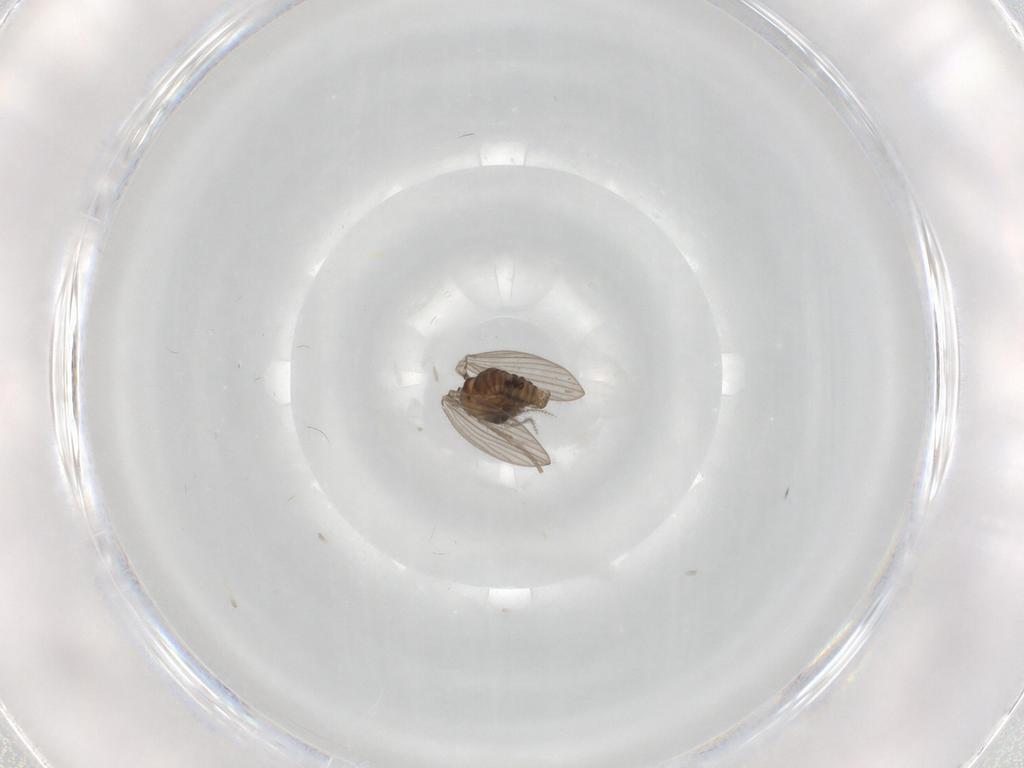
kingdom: Animalia
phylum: Arthropoda
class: Insecta
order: Diptera
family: Psychodidae
